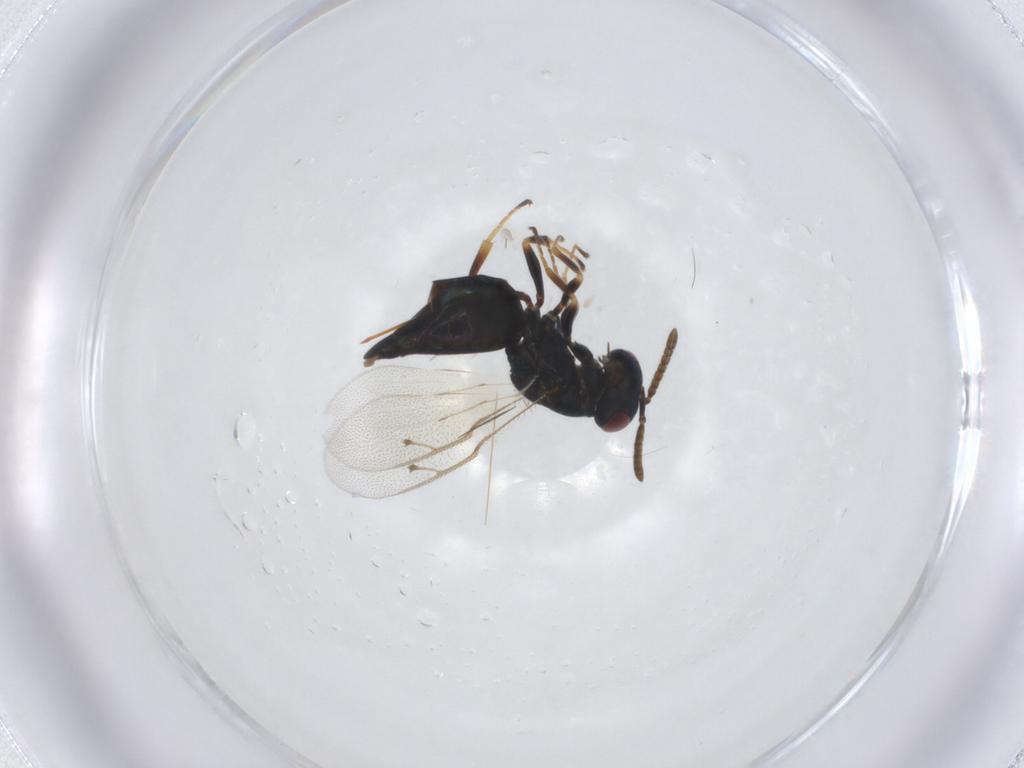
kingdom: Animalia
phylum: Arthropoda
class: Insecta
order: Hymenoptera
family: Pteromalidae
